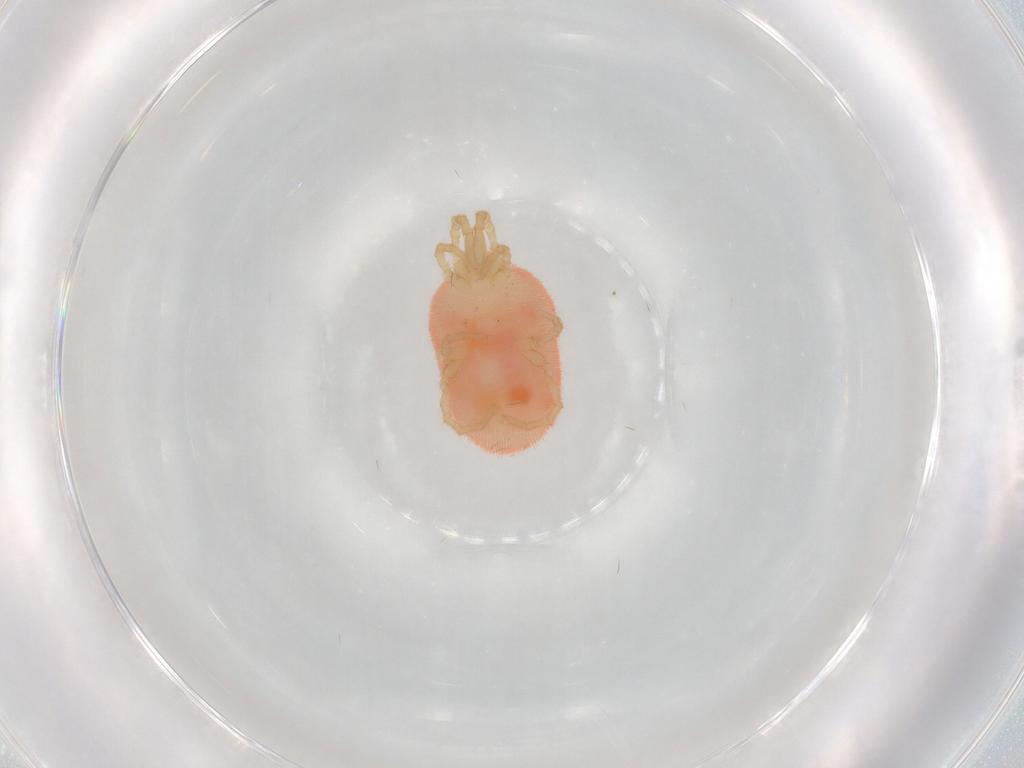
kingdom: Animalia
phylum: Arthropoda
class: Arachnida
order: Trombidiformes
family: Trombidiidae
